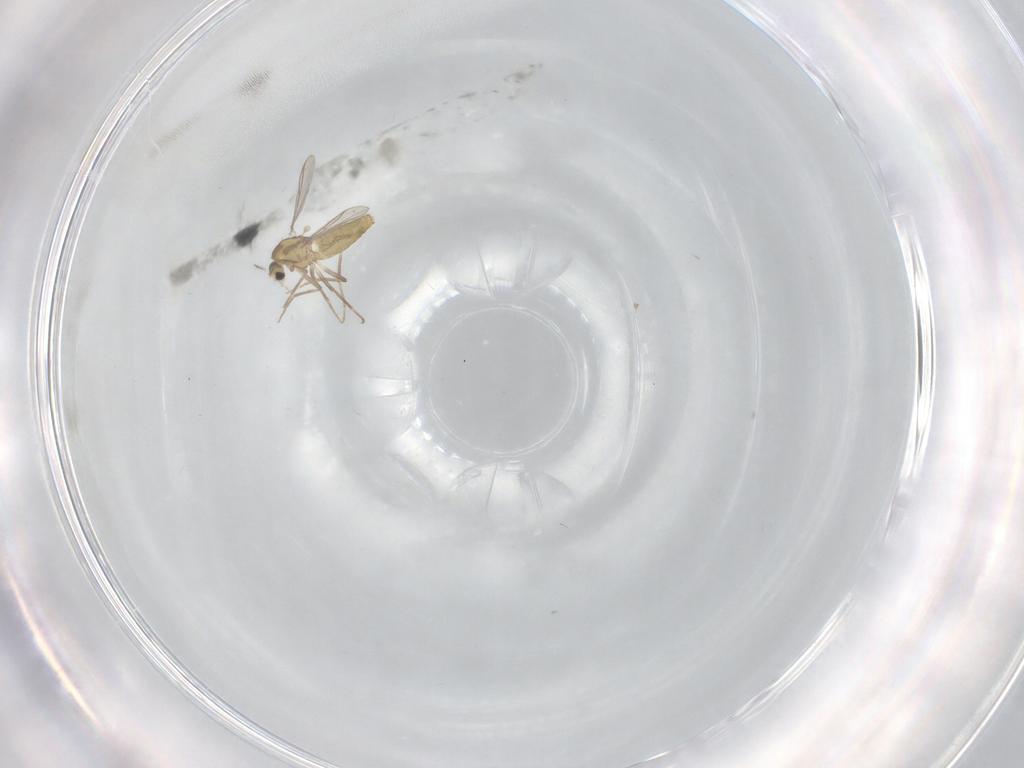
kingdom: Animalia
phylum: Arthropoda
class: Insecta
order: Diptera
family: Chironomidae
